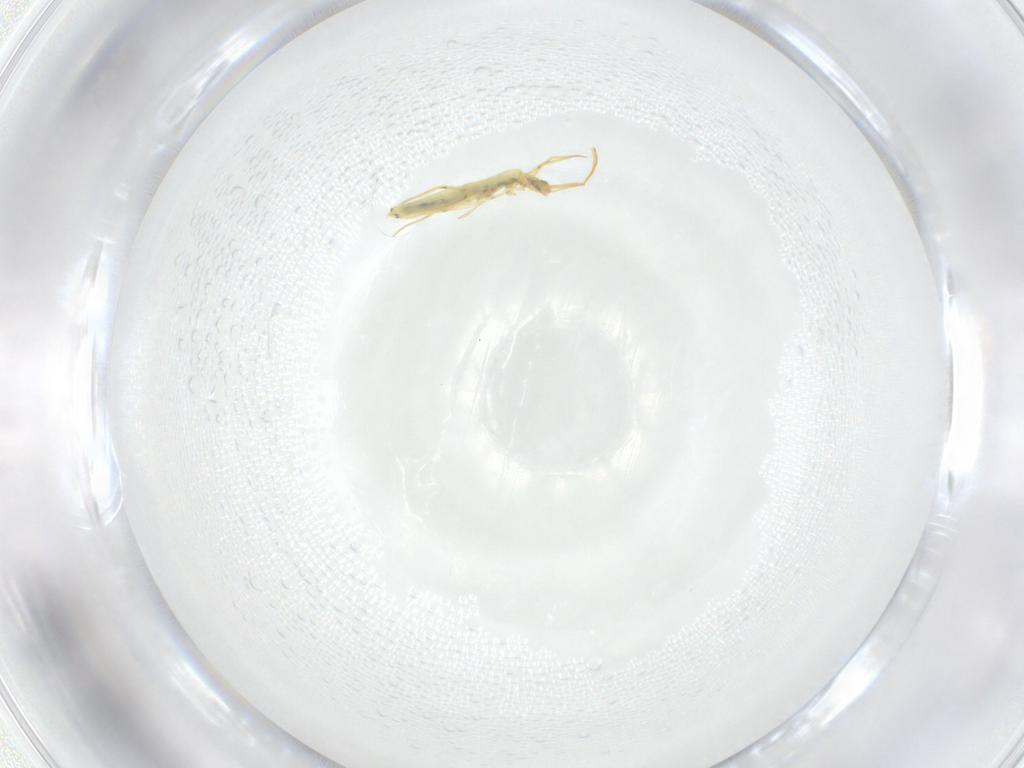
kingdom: Animalia
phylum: Arthropoda
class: Collembola
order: Entomobryomorpha
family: Entomobryidae
